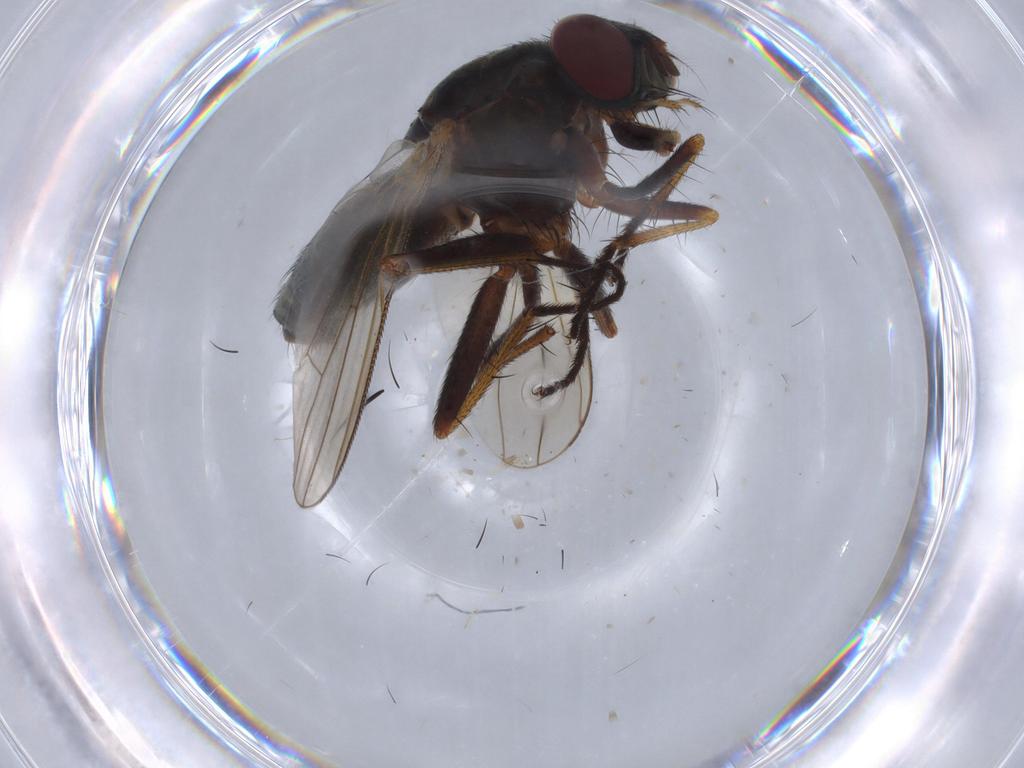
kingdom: Animalia
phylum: Arthropoda
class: Insecta
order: Diptera
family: Muscidae
